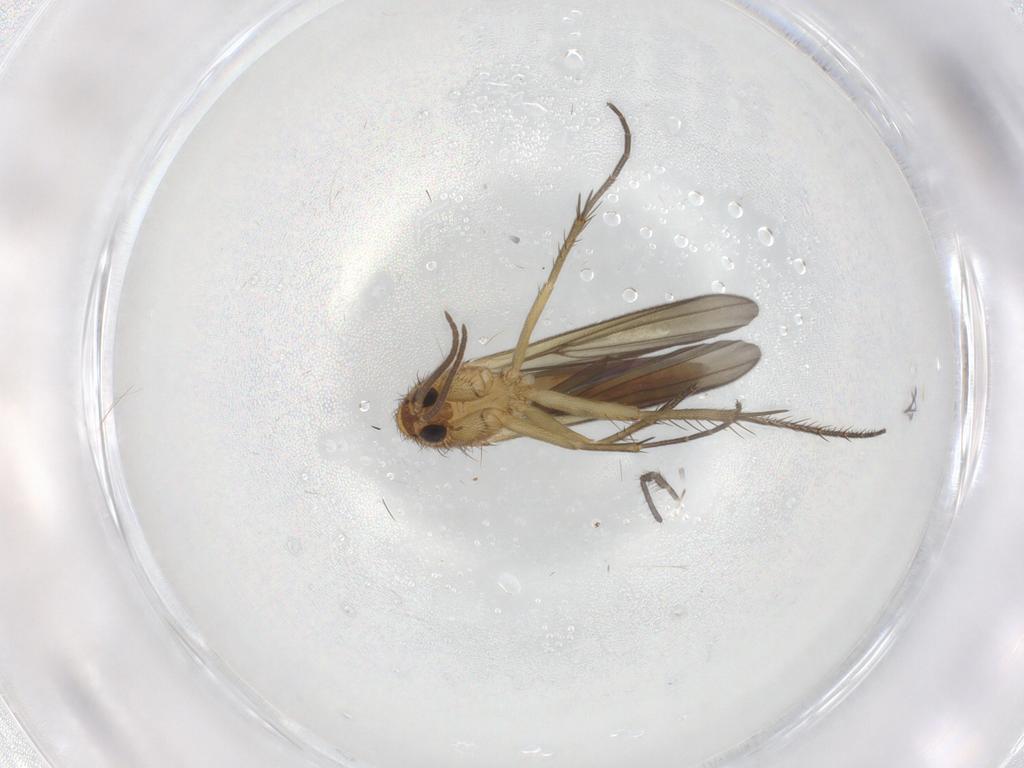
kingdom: Animalia
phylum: Arthropoda
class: Insecta
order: Diptera
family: Mycetophilidae
